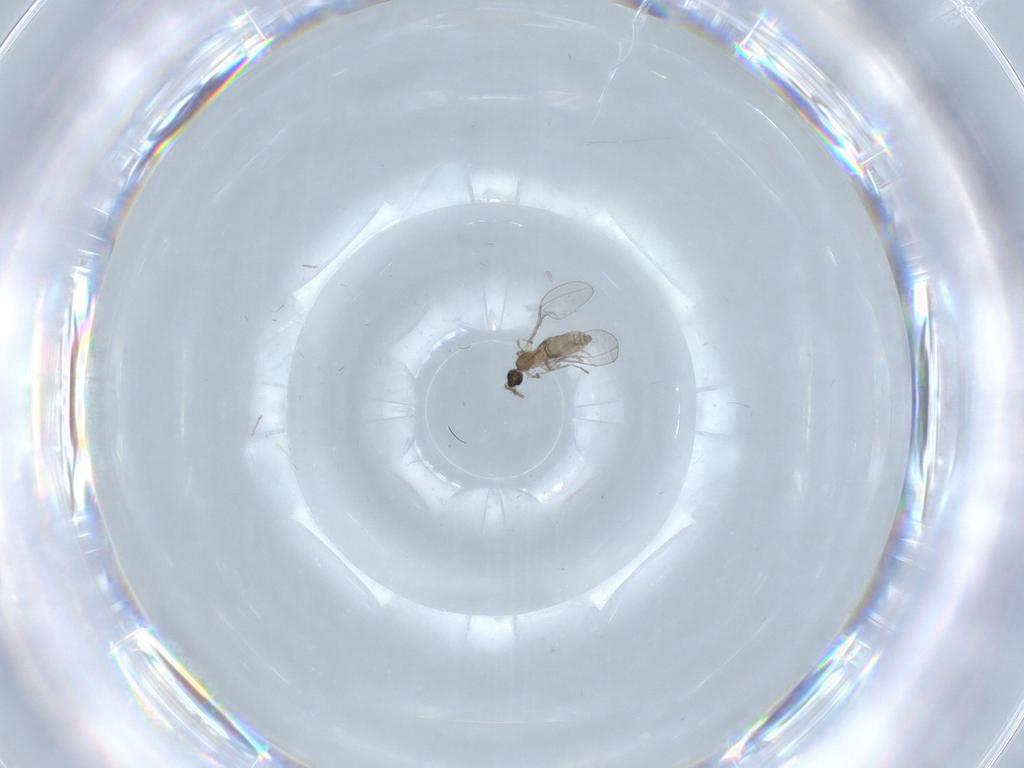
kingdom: Animalia
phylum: Arthropoda
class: Insecta
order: Diptera
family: Cecidomyiidae
